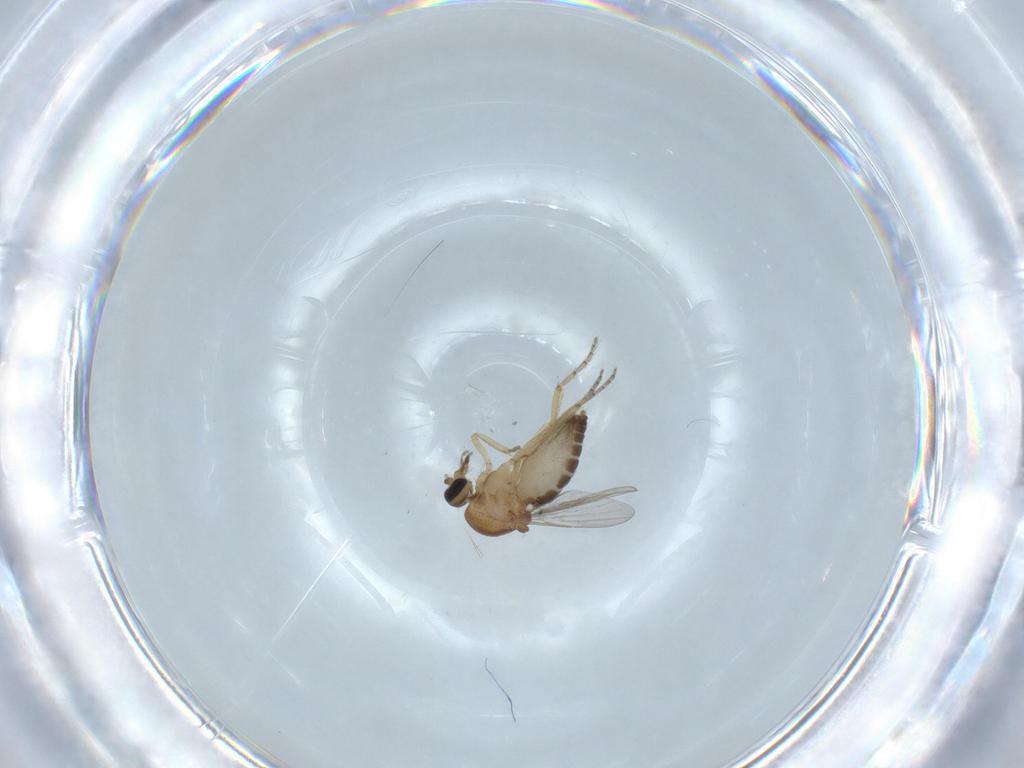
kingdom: Animalia
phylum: Arthropoda
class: Insecta
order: Diptera
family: Ceratopogonidae
